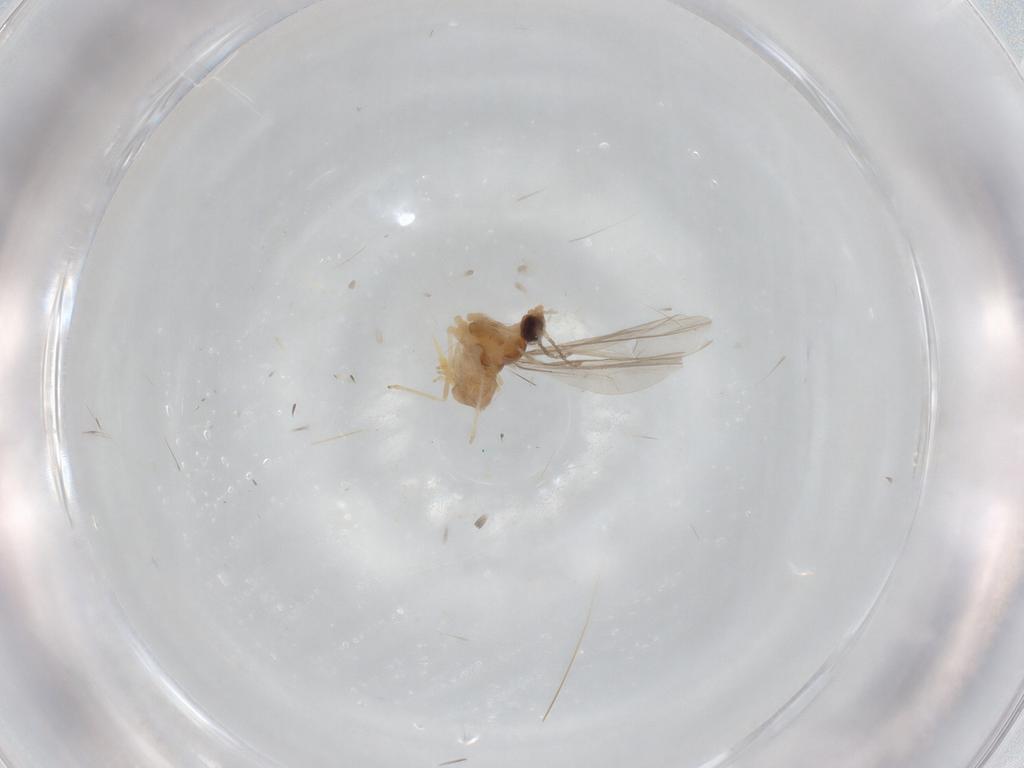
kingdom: Animalia
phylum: Arthropoda
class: Insecta
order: Diptera
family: Cecidomyiidae
